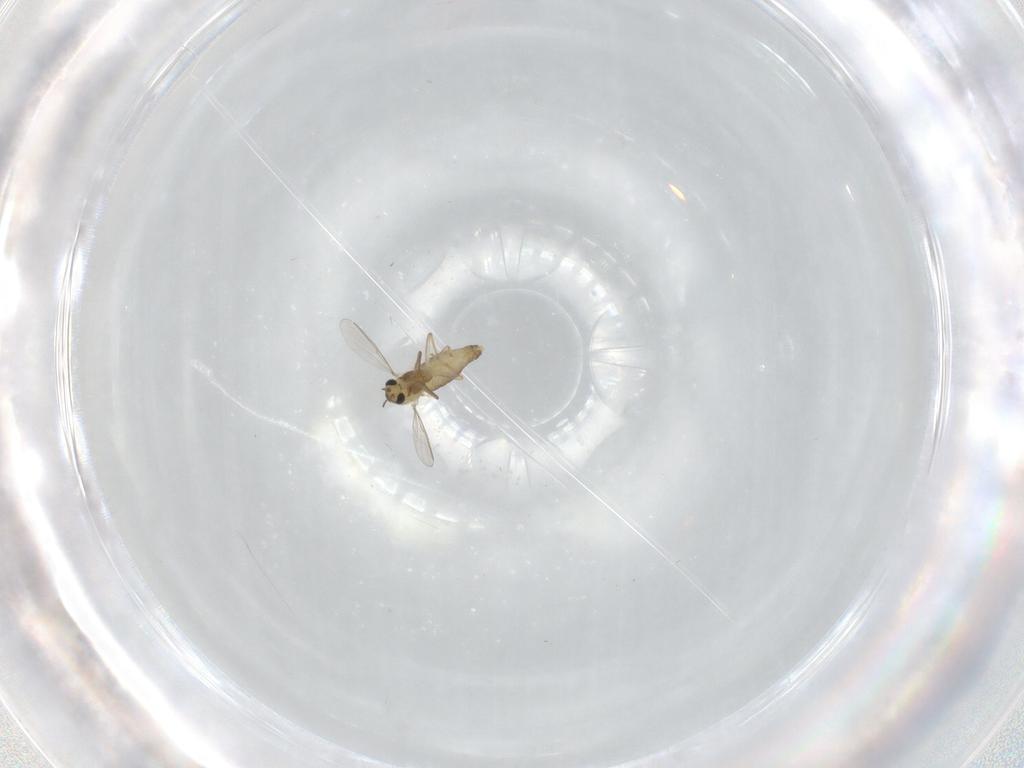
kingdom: Animalia
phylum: Arthropoda
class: Insecta
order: Diptera
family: Chironomidae
